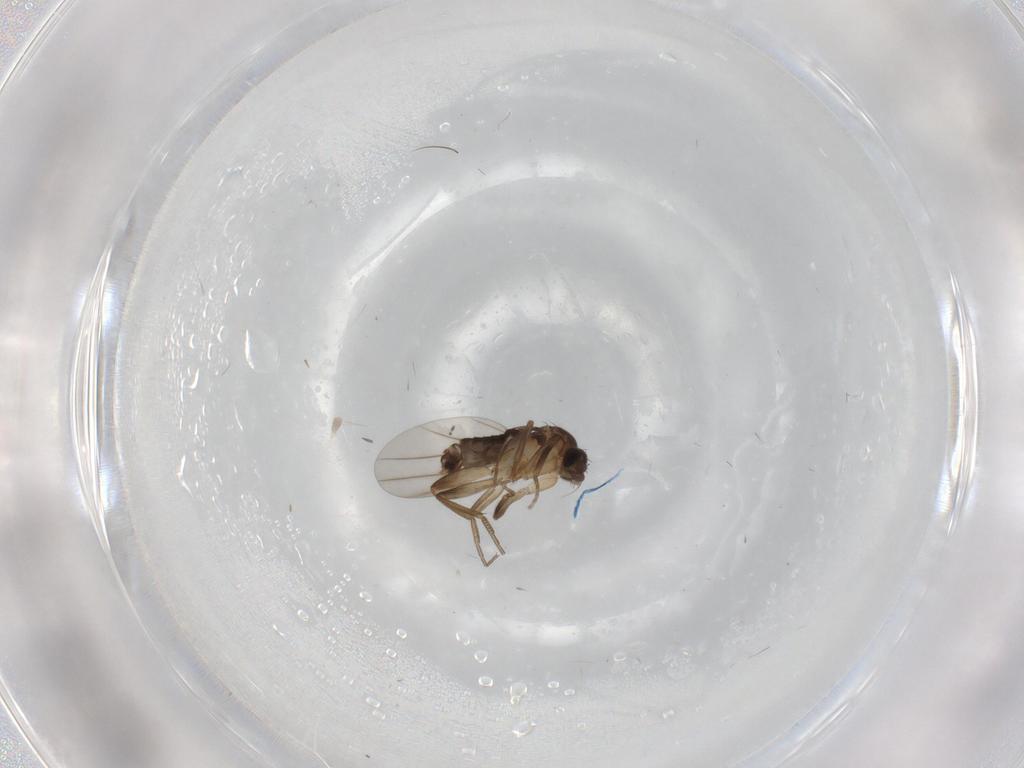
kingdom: Animalia
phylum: Arthropoda
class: Insecta
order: Diptera
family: Phoridae
